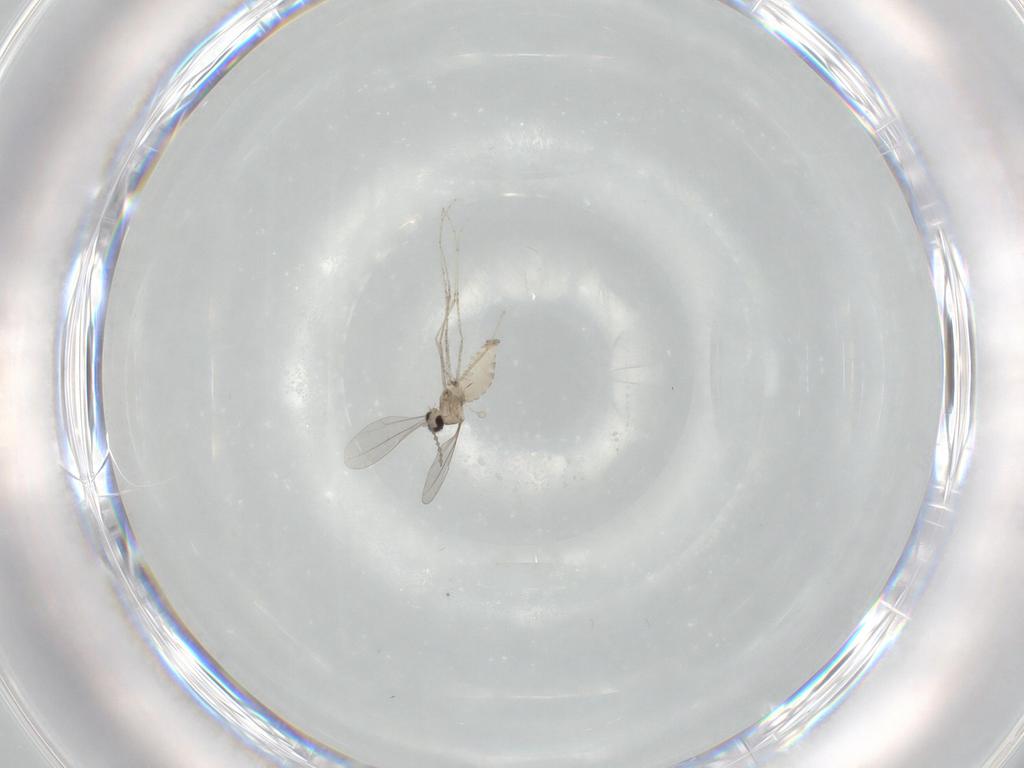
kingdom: Animalia
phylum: Arthropoda
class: Insecta
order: Diptera
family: Cecidomyiidae
